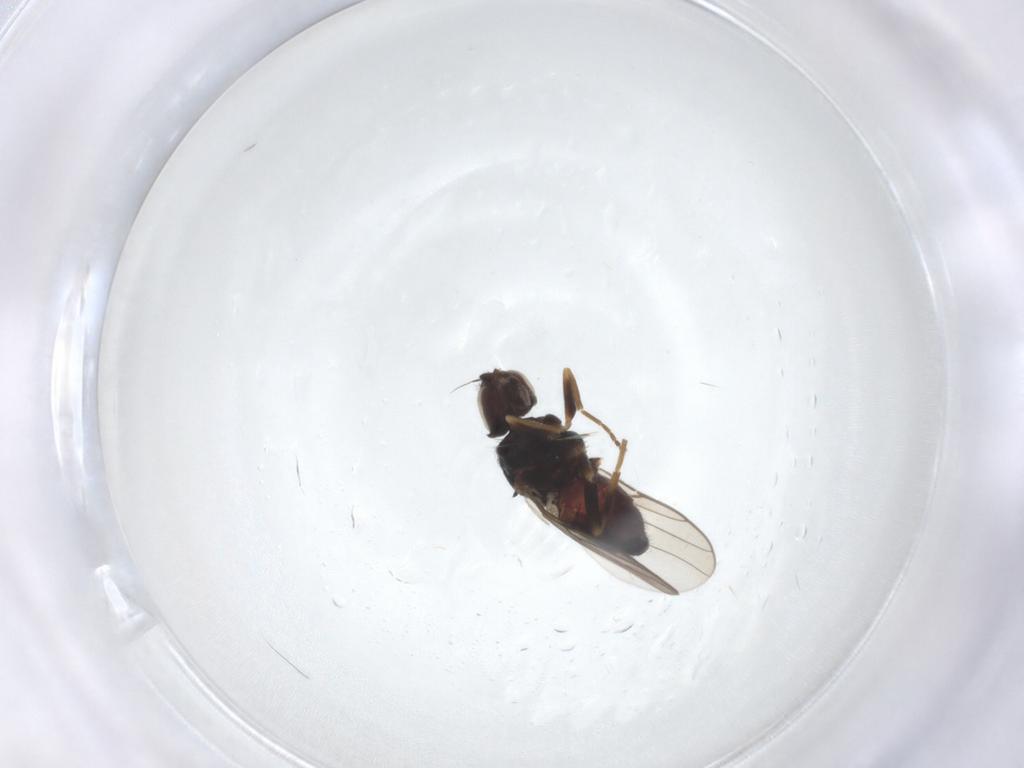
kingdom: Animalia
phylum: Arthropoda
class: Insecta
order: Diptera
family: Chloropidae
